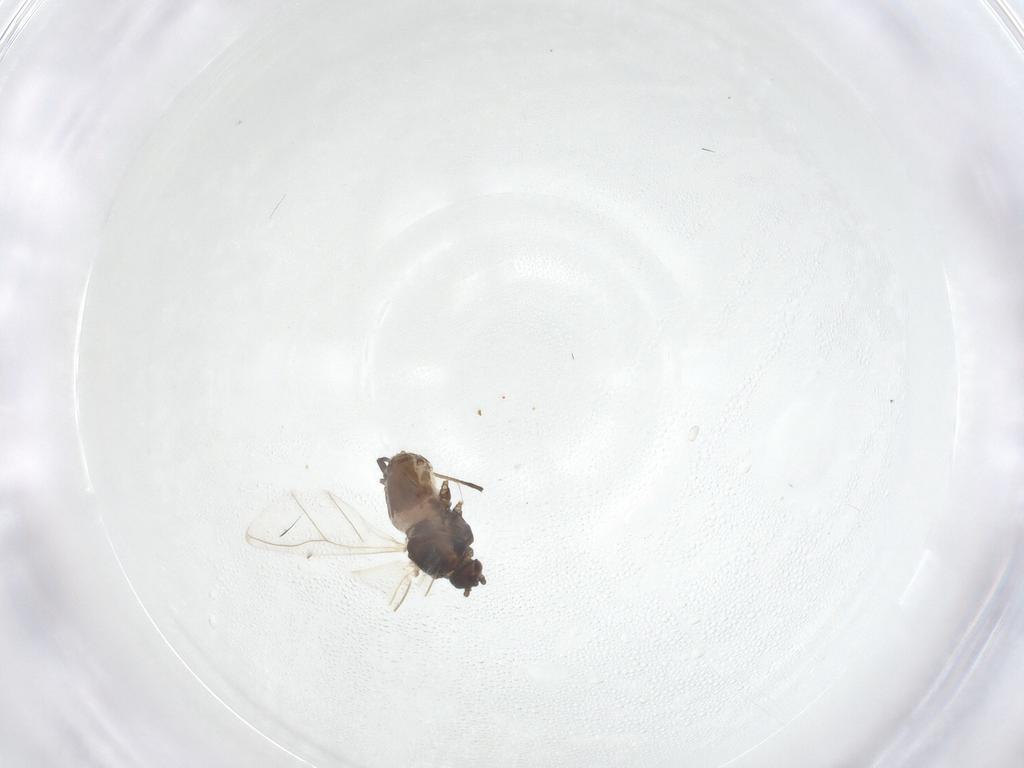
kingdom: Animalia
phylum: Arthropoda
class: Insecta
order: Hemiptera
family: Aphididae
